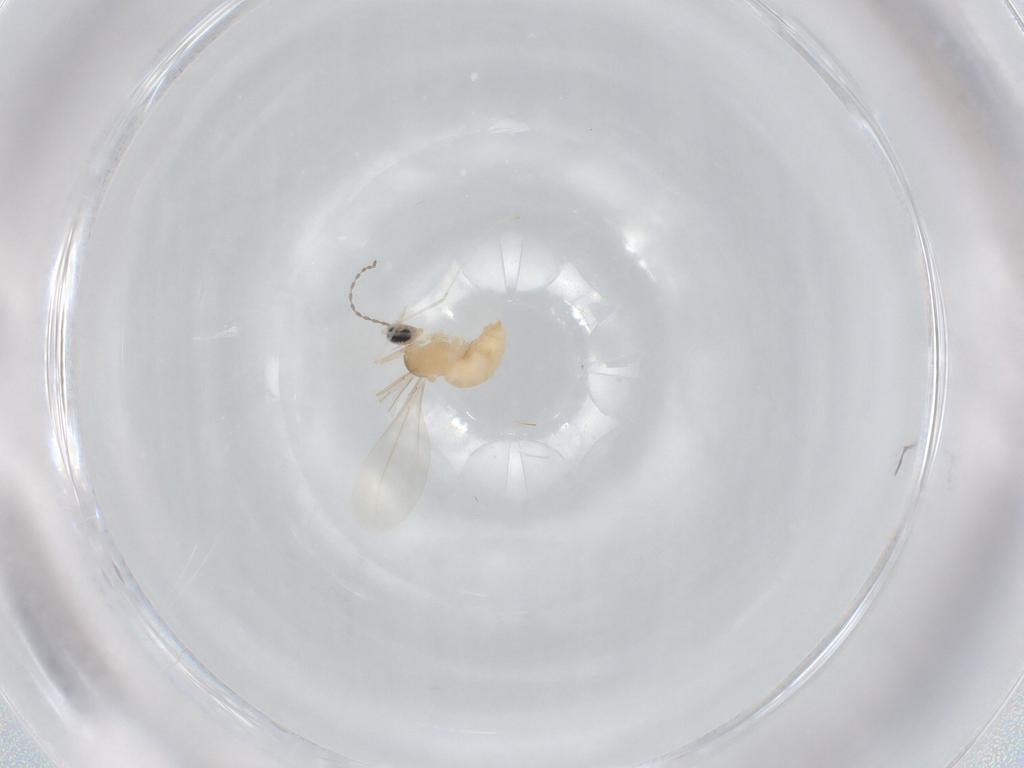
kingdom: Animalia
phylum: Arthropoda
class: Insecta
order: Diptera
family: Cecidomyiidae
